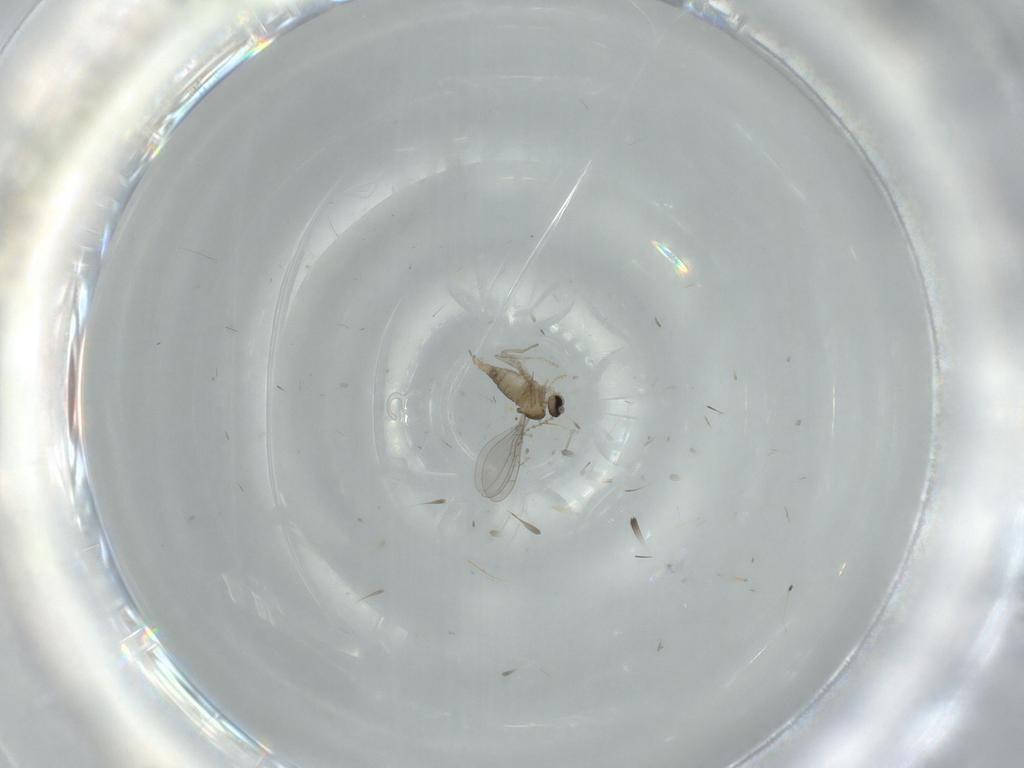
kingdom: Animalia
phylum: Arthropoda
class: Insecta
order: Diptera
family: Cecidomyiidae
